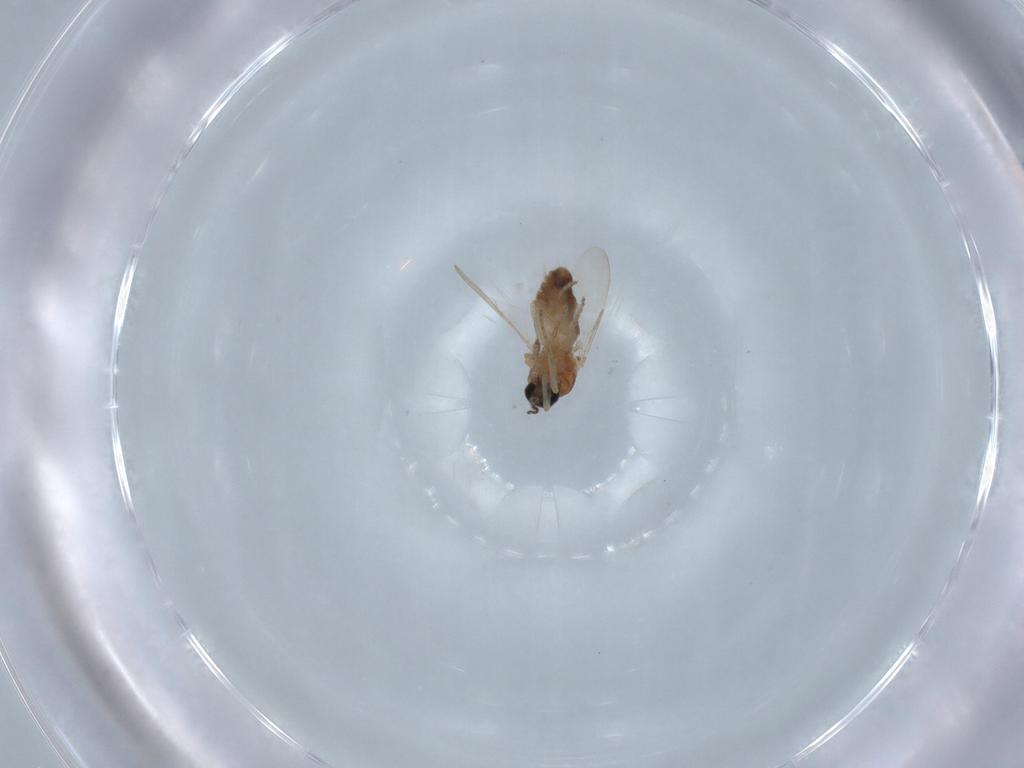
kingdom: Animalia
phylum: Arthropoda
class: Insecta
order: Diptera
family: Ceratopogonidae
